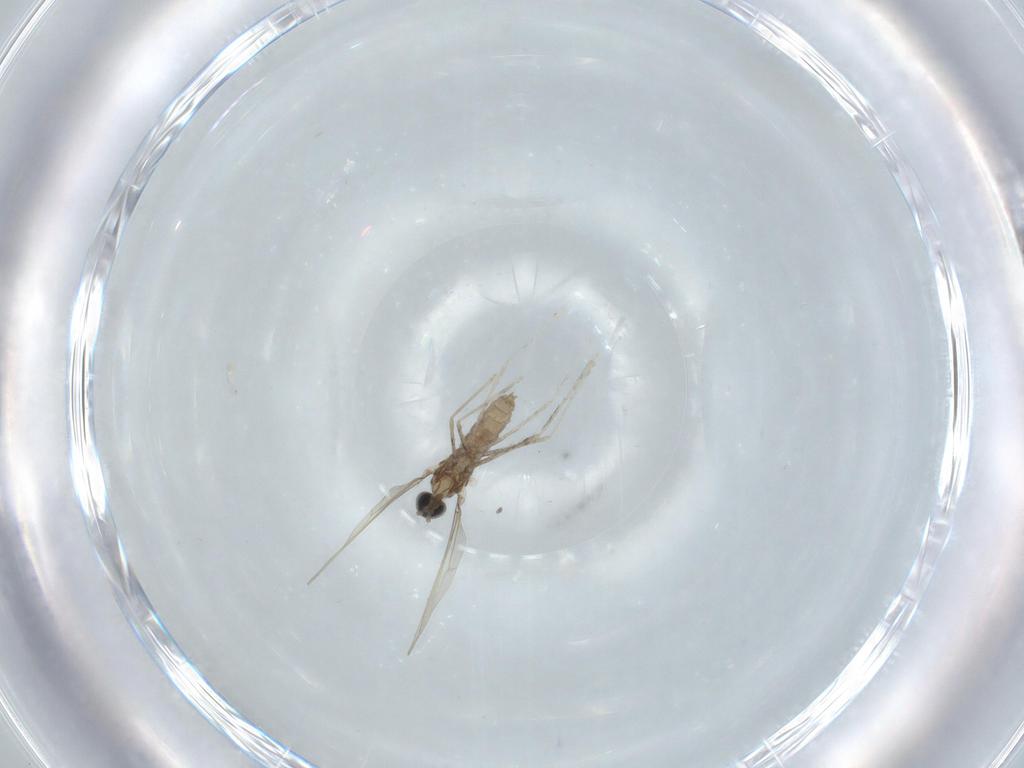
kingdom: Animalia
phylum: Arthropoda
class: Insecta
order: Diptera
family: Cecidomyiidae
